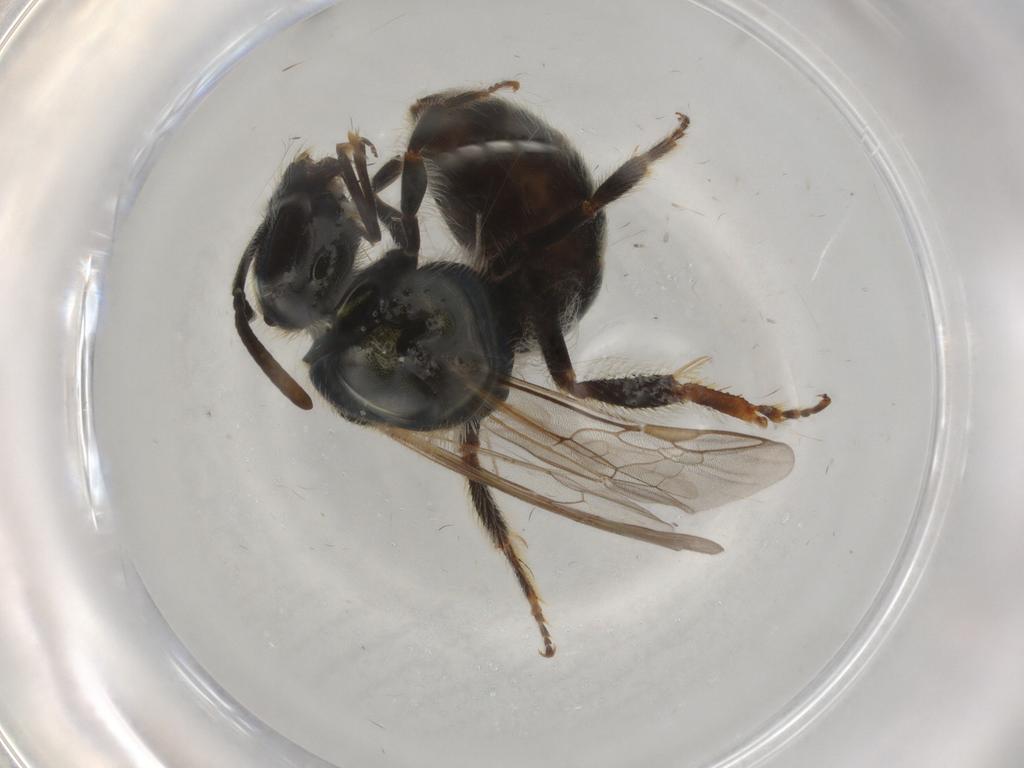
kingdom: Animalia
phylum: Arthropoda
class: Insecta
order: Hymenoptera
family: Halictidae
